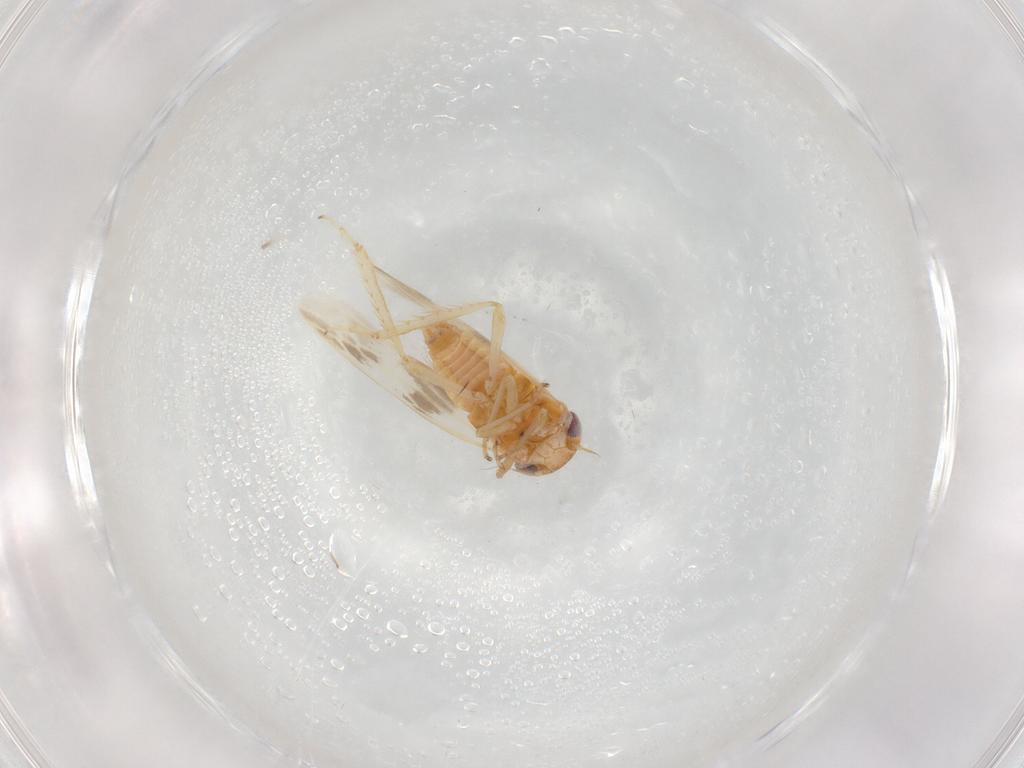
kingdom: Animalia
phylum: Arthropoda
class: Insecta
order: Hemiptera
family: Cicadellidae
